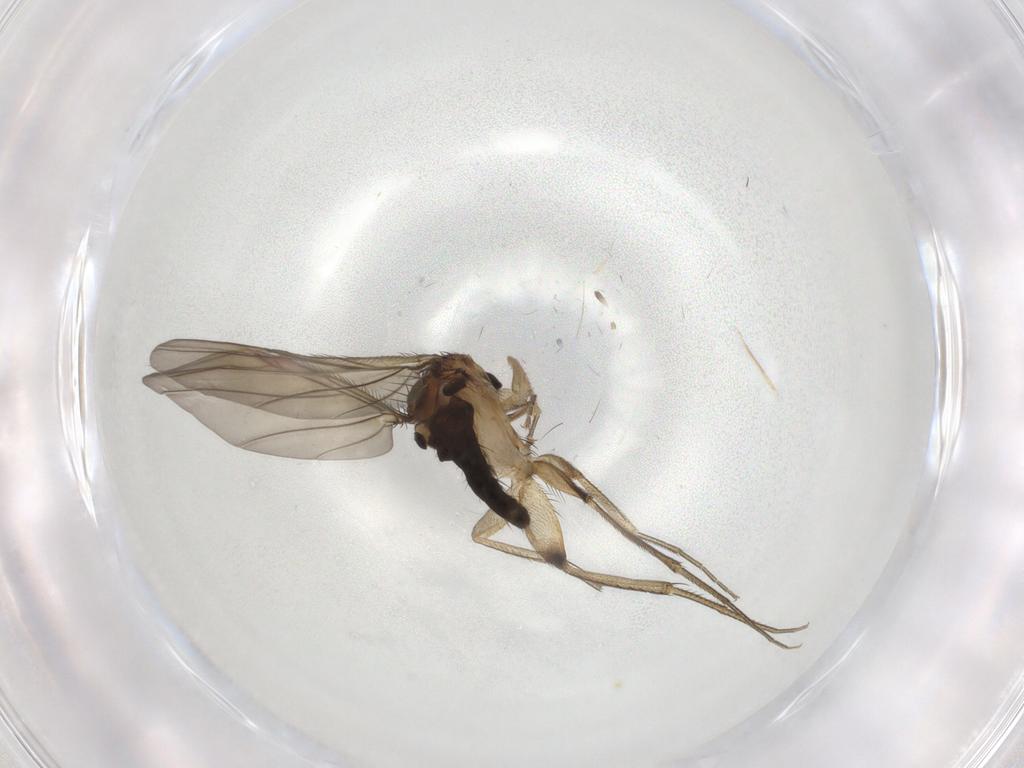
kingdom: Animalia
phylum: Arthropoda
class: Insecta
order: Diptera
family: Phoridae
